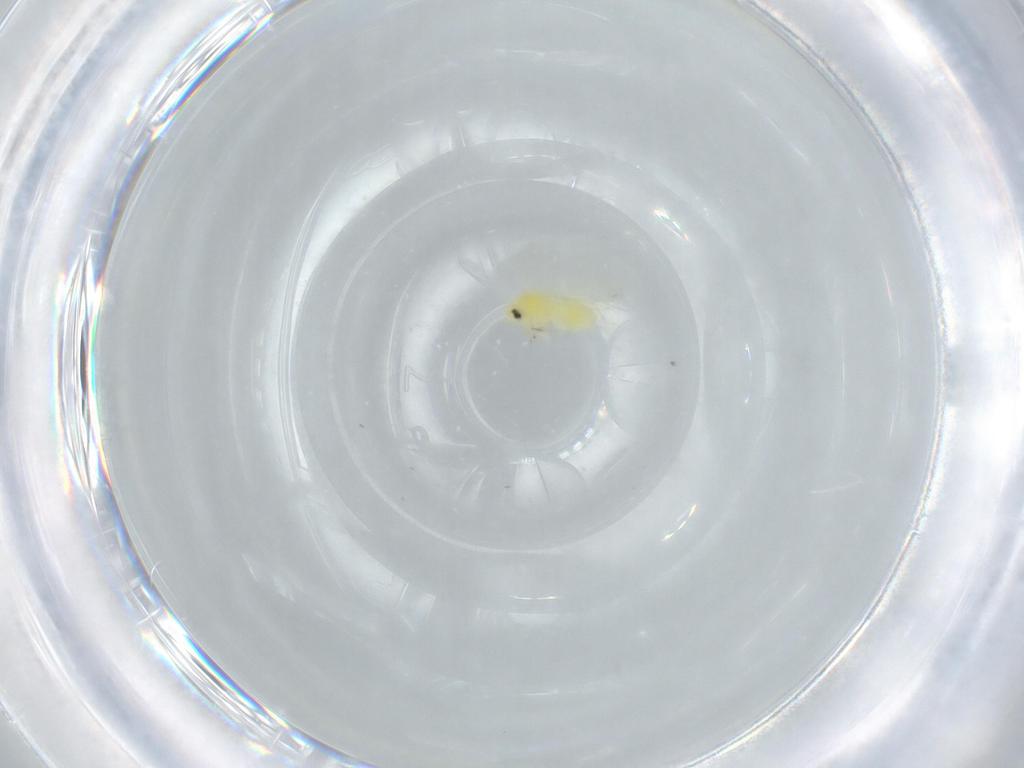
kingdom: Animalia
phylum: Arthropoda
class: Insecta
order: Hemiptera
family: Aleyrodidae
